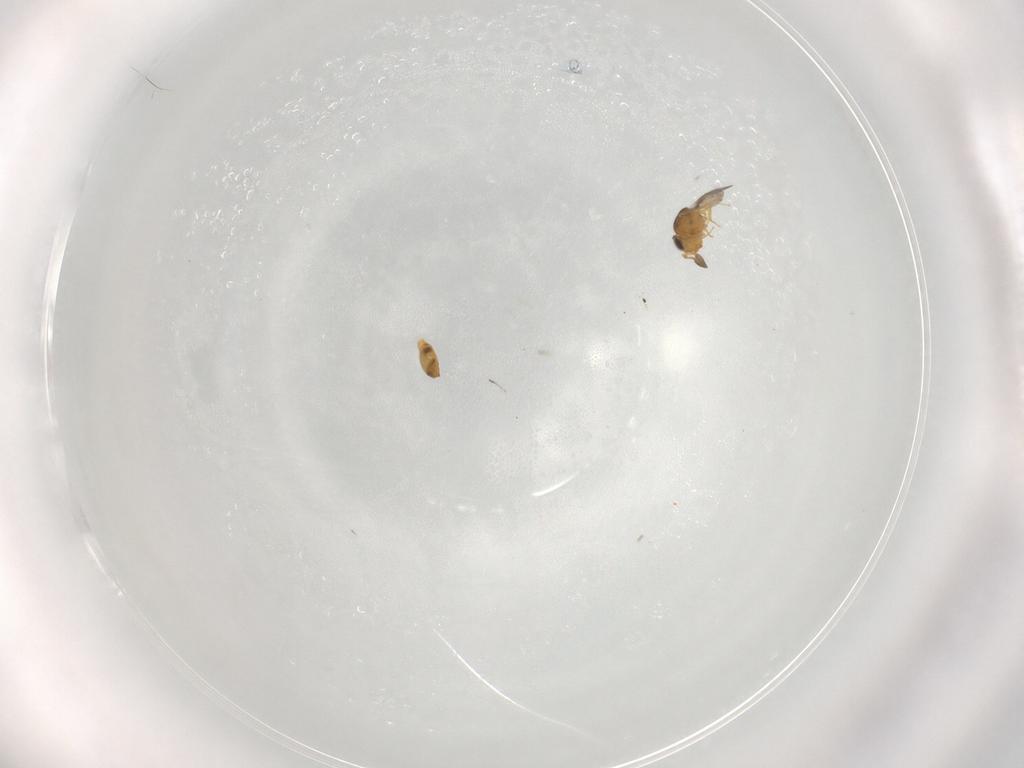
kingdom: Animalia
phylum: Arthropoda
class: Insecta
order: Hymenoptera
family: Scelionidae
